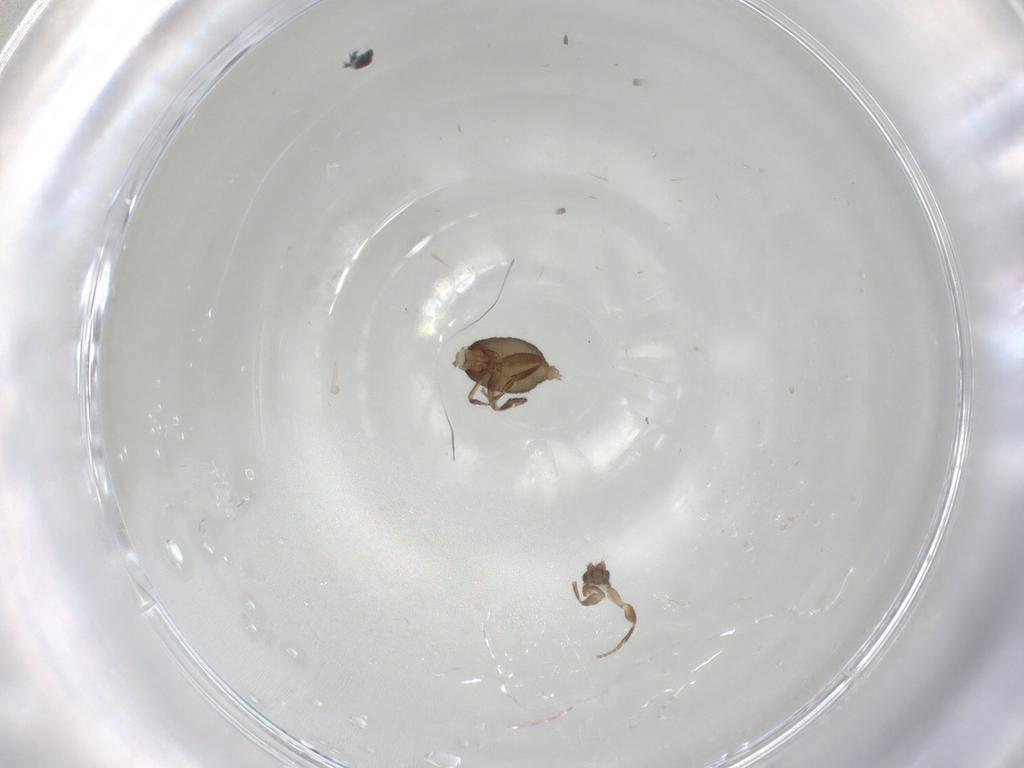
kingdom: Animalia
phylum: Arthropoda
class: Insecta
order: Diptera
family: Phoridae
